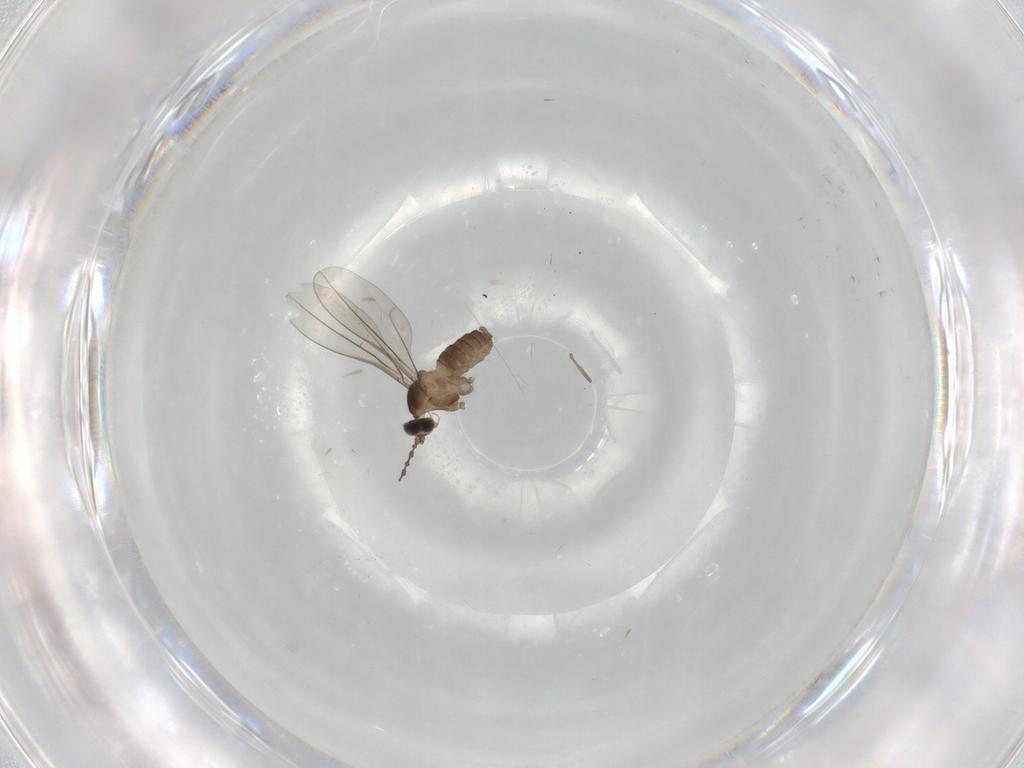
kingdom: Animalia
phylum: Arthropoda
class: Insecta
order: Diptera
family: Cecidomyiidae
